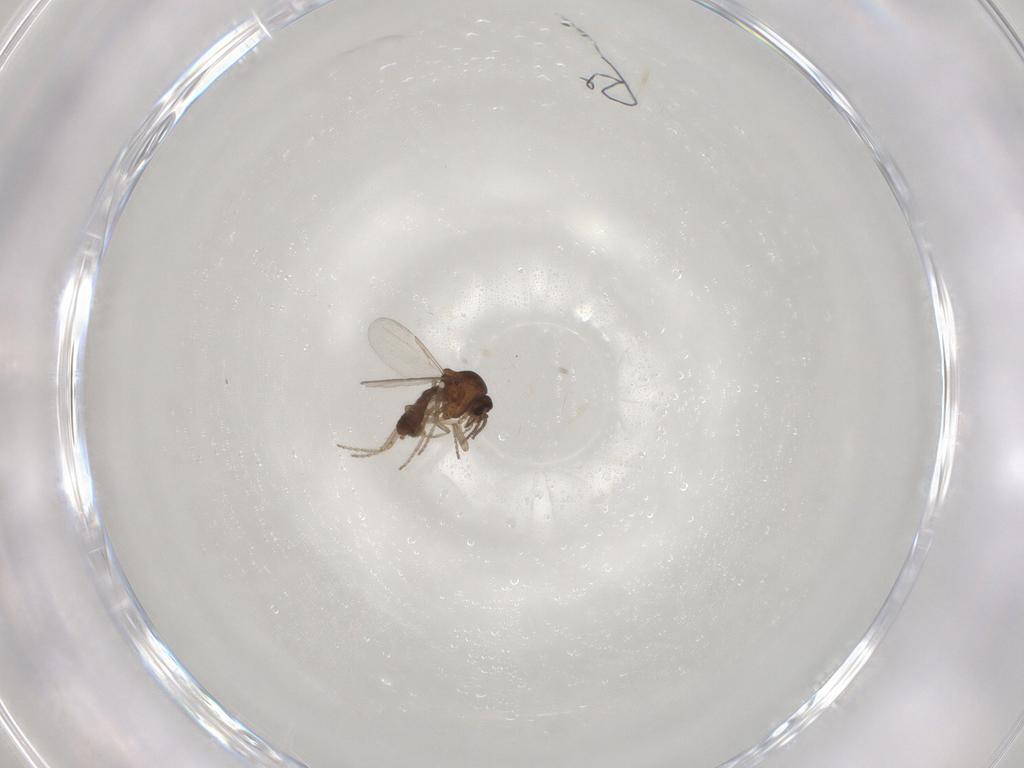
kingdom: Animalia
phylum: Arthropoda
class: Insecta
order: Diptera
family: Ceratopogonidae
